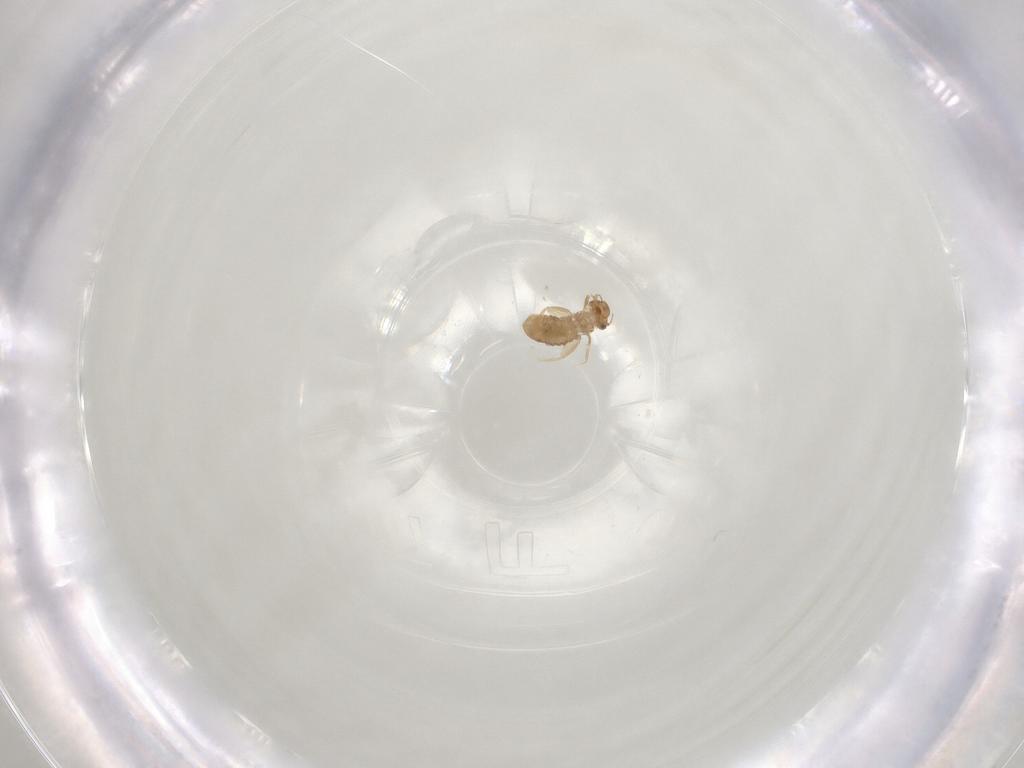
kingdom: Animalia
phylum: Arthropoda
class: Insecta
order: Psocodea
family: Liposcelididae
